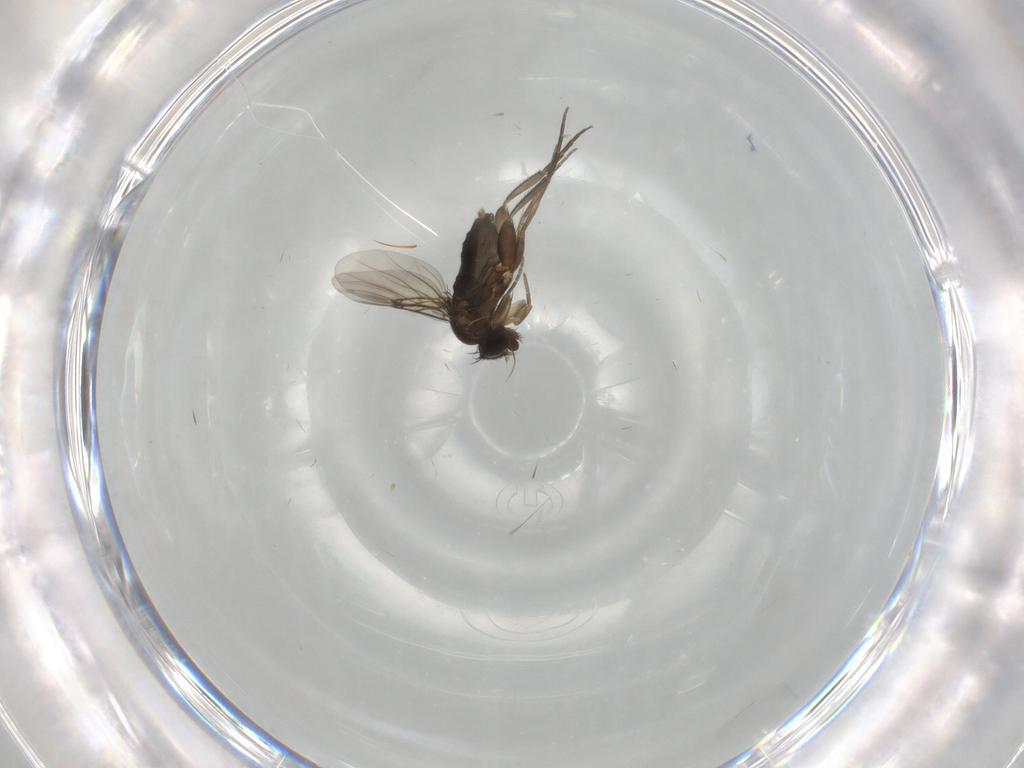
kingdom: Animalia
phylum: Arthropoda
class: Insecta
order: Diptera
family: Phoridae
